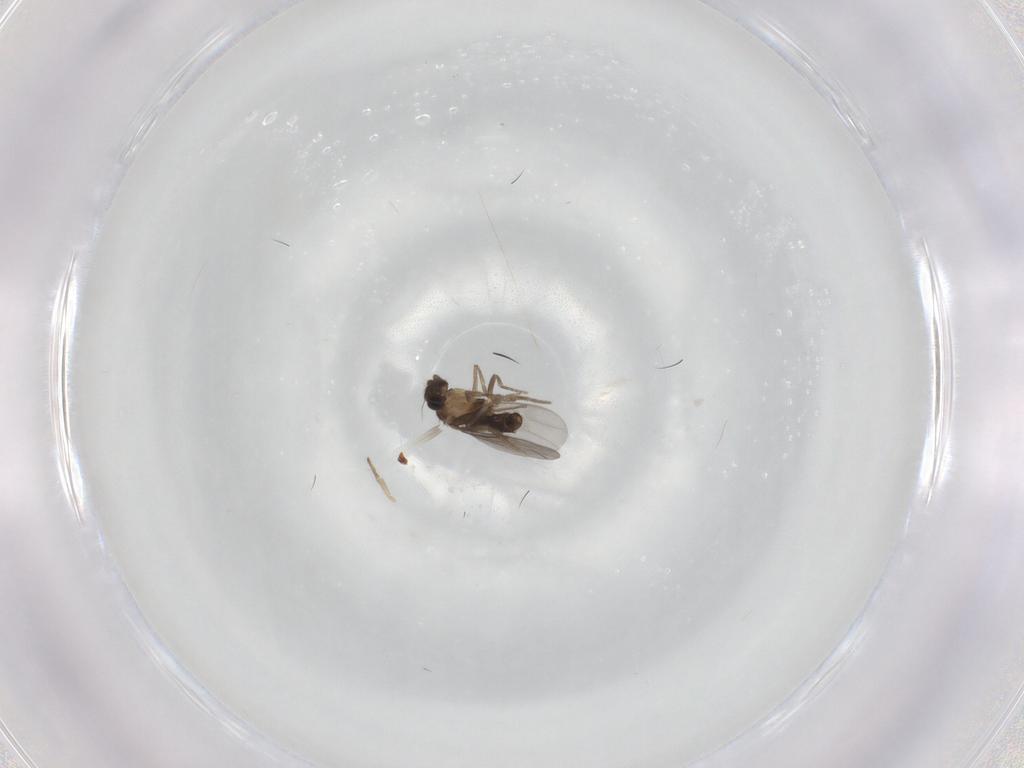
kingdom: Animalia
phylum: Arthropoda
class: Insecta
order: Diptera
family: Phoridae
